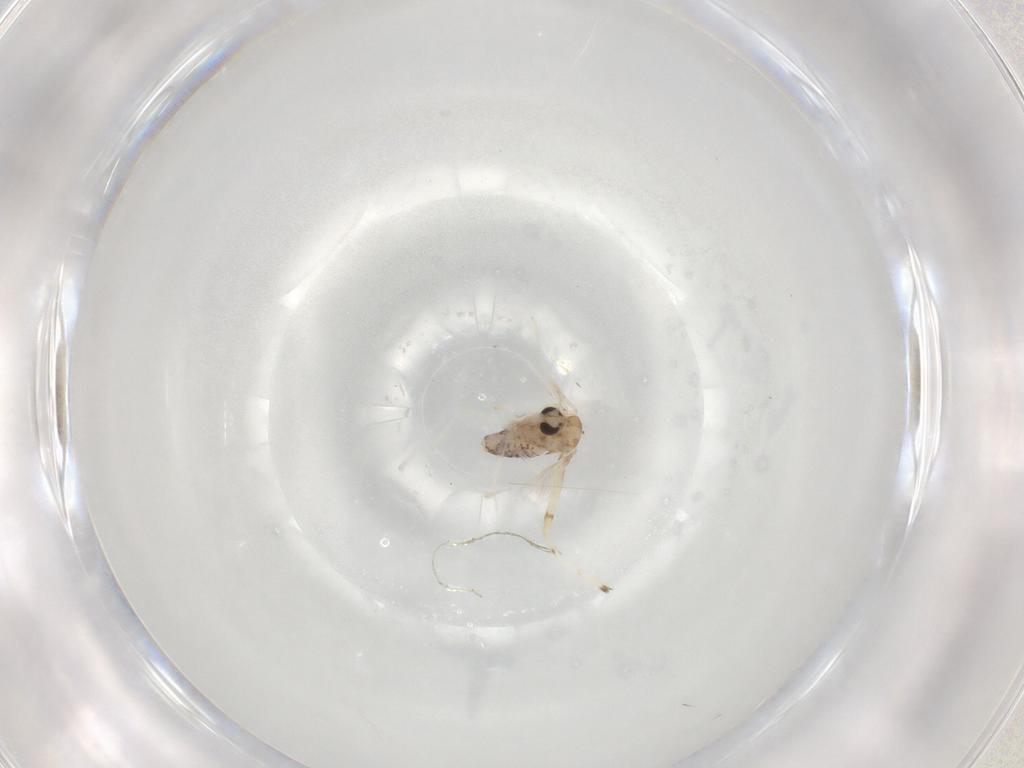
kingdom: Animalia
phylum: Arthropoda
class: Insecta
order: Diptera
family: Chironomidae
